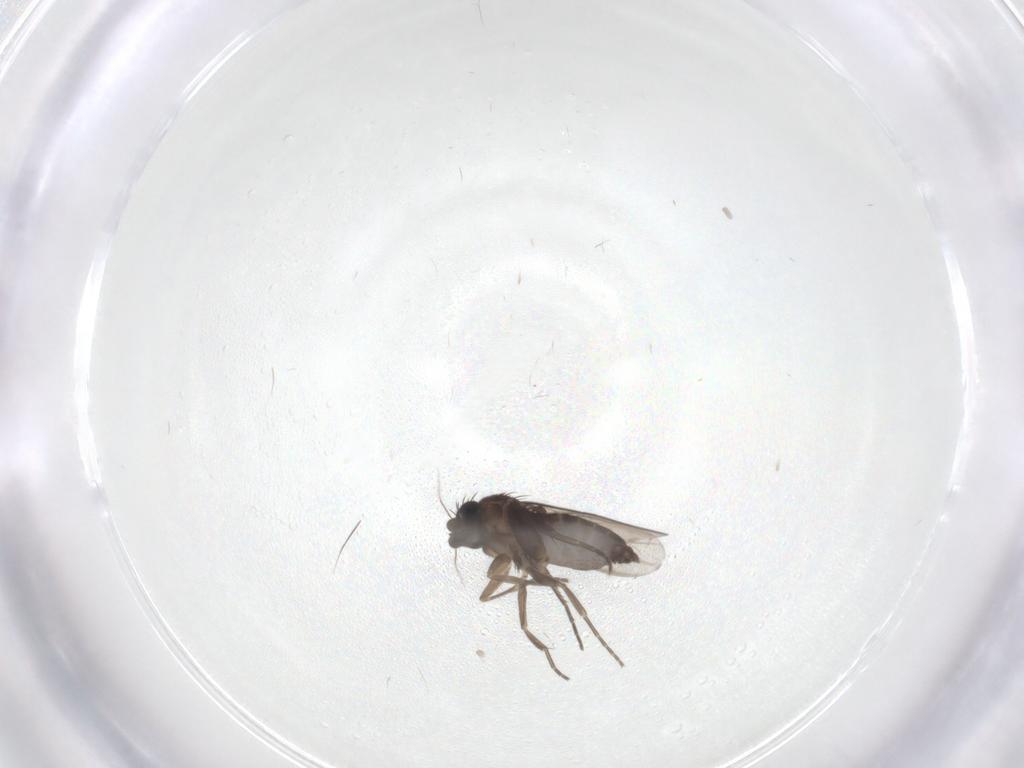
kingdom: Animalia
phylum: Arthropoda
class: Insecta
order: Diptera
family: Phoridae
